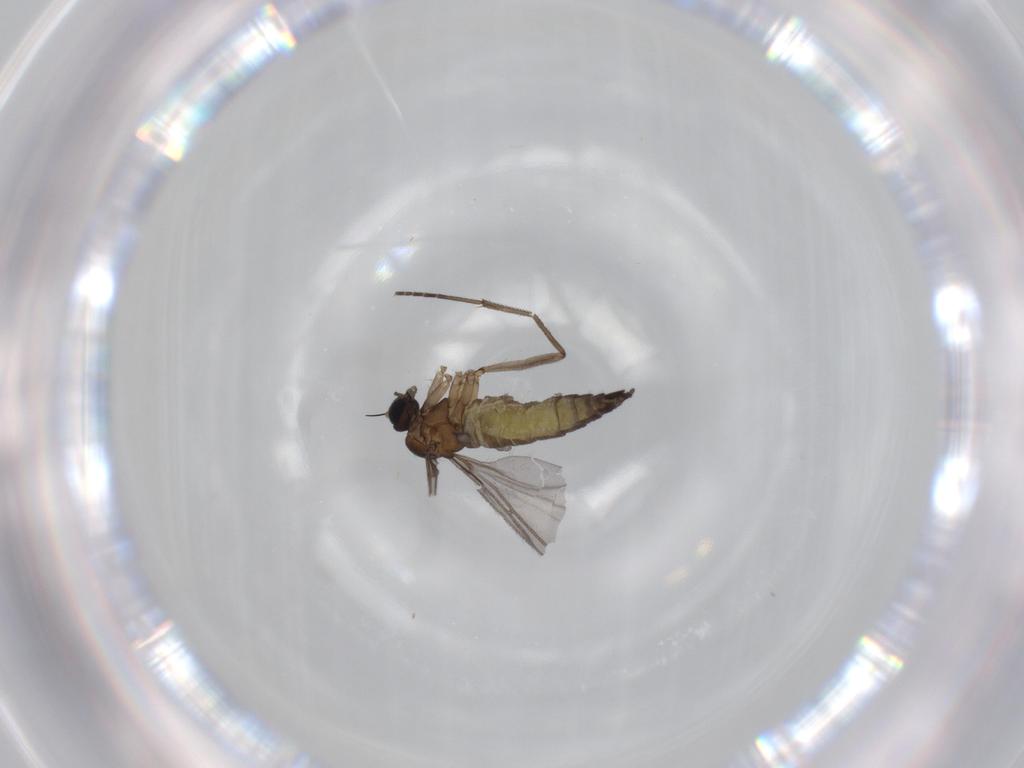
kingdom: Animalia
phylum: Arthropoda
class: Insecta
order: Diptera
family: Sciaridae
